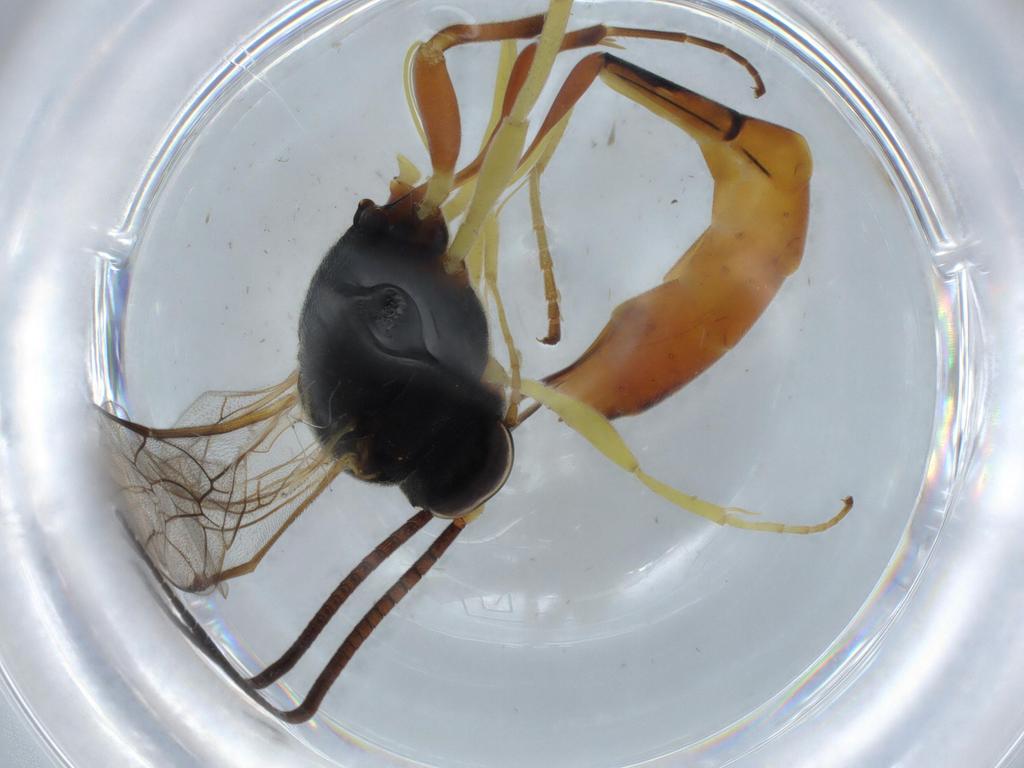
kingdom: Animalia
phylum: Arthropoda
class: Insecta
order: Hymenoptera
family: Ichneumonidae
